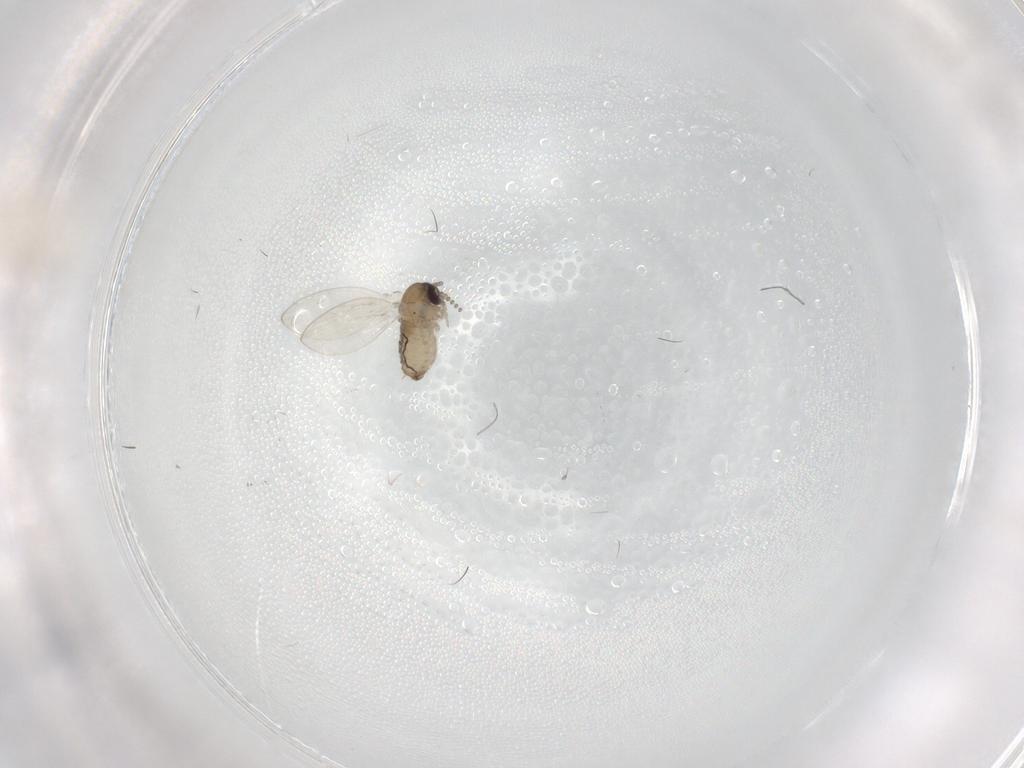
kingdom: Animalia
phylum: Arthropoda
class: Insecta
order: Diptera
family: Psychodidae
